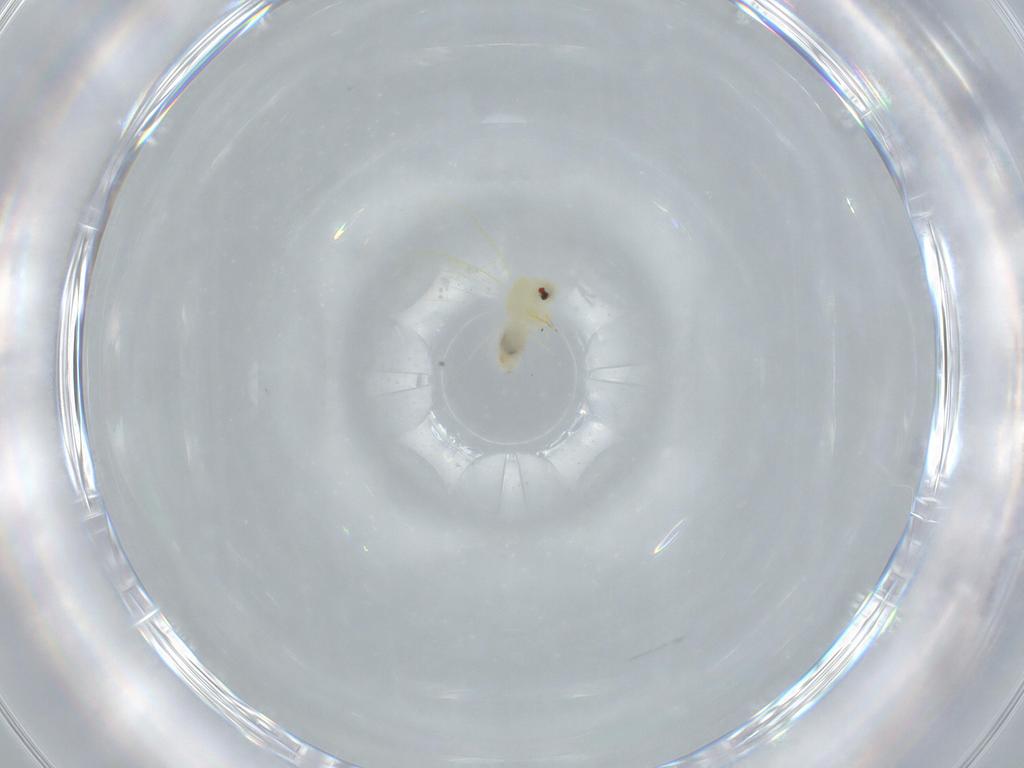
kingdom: Animalia
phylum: Arthropoda
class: Insecta
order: Hemiptera
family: Aleyrodidae
